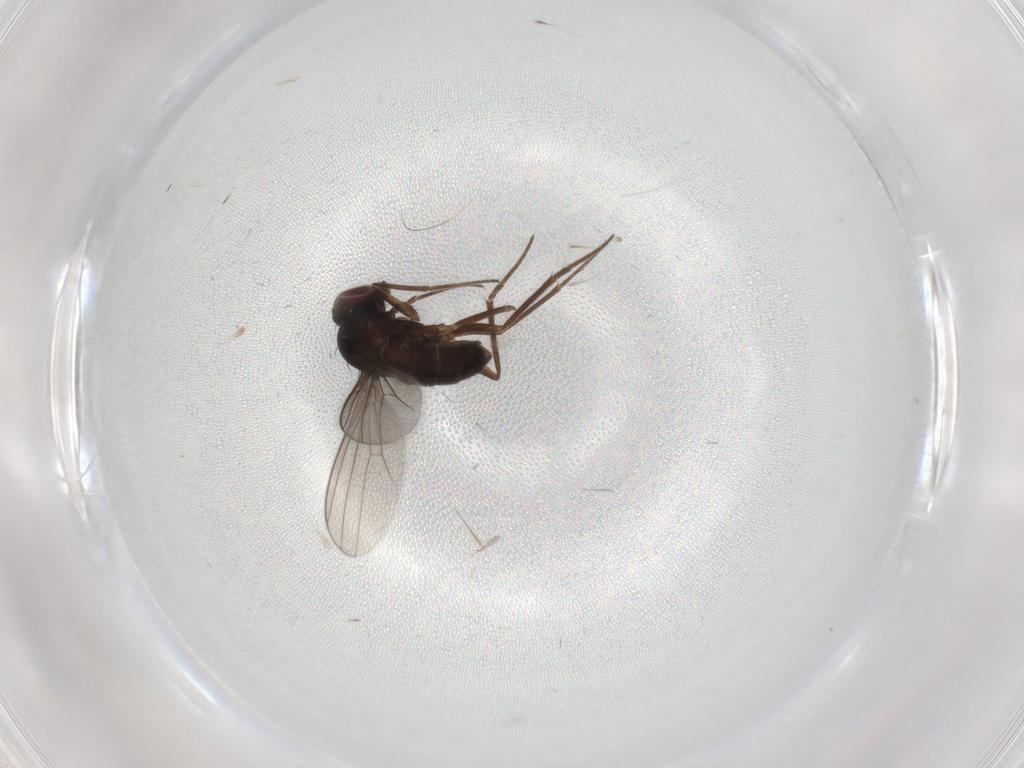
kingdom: Animalia
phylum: Arthropoda
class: Insecta
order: Diptera
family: Dolichopodidae
